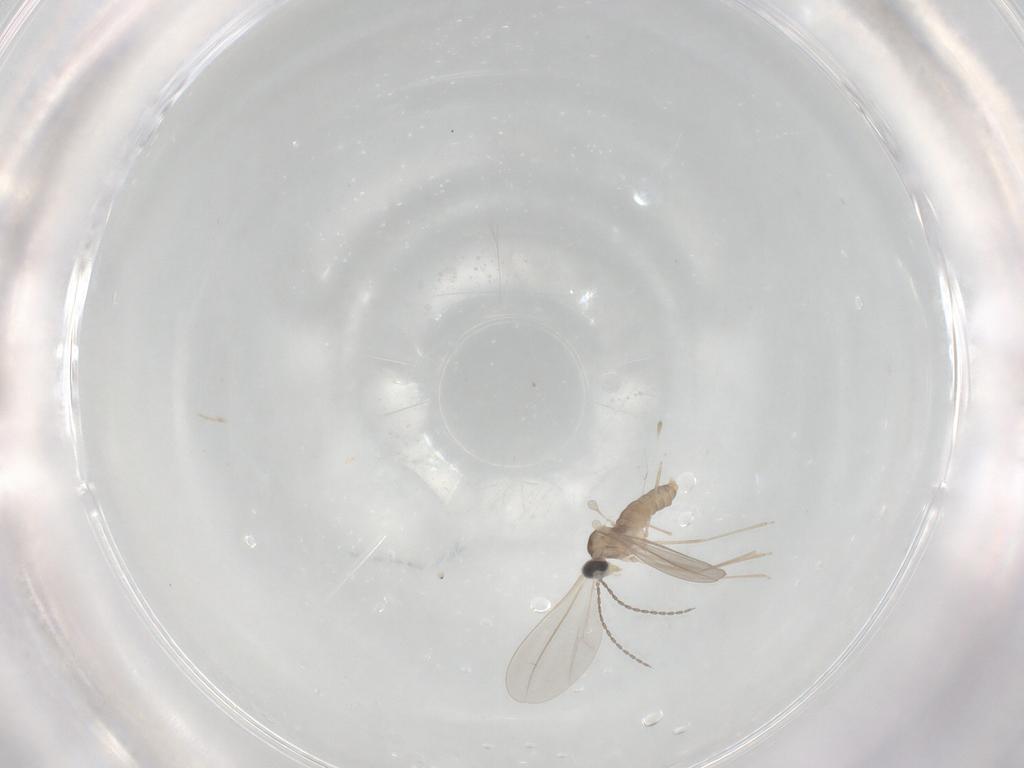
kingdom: Animalia
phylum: Arthropoda
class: Insecta
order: Diptera
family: Cecidomyiidae
